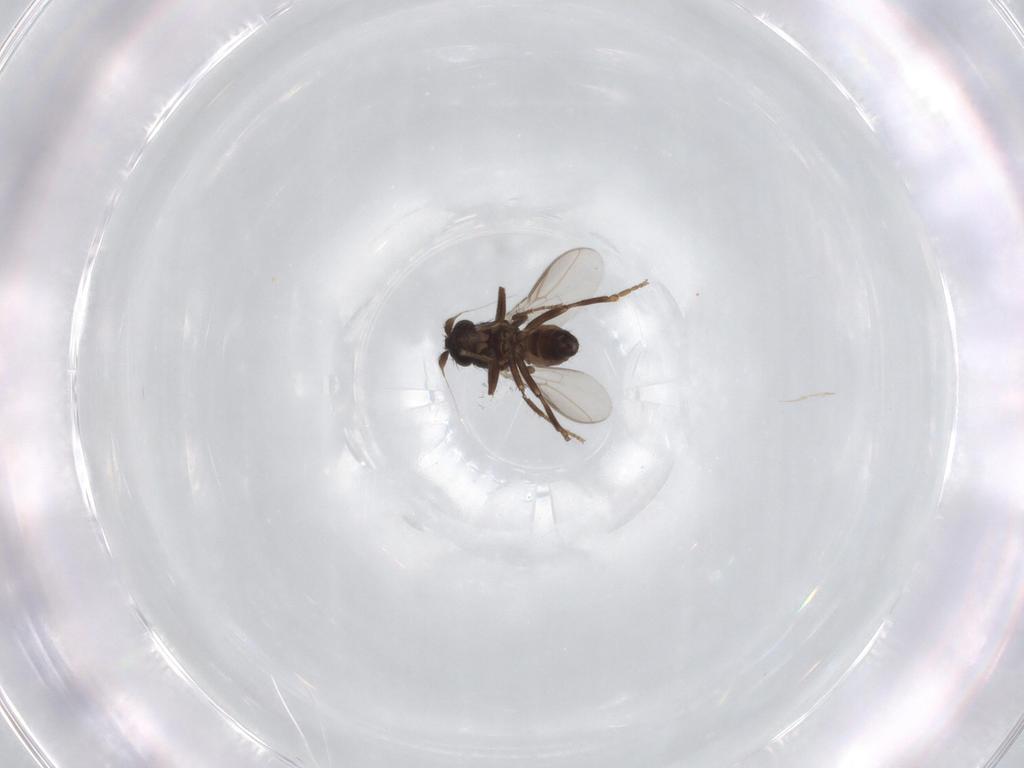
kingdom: Animalia
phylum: Arthropoda
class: Insecta
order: Diptera
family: Sphaeroceridae
